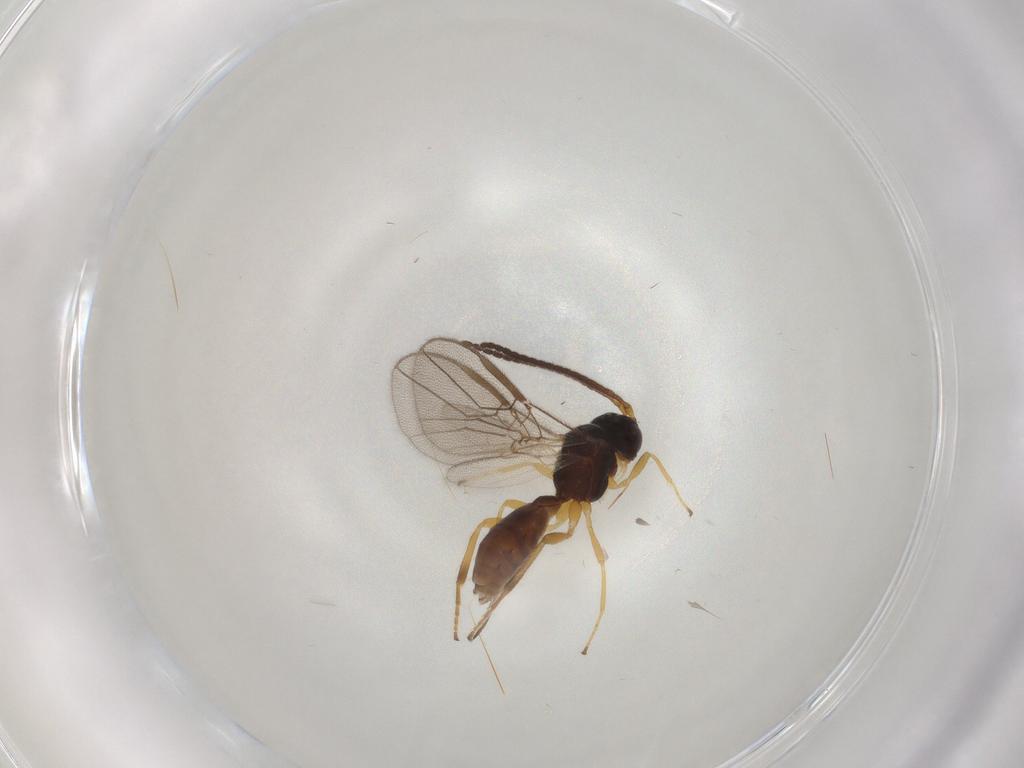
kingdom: Animalia
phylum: Arthropoda
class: Insecta
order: Hymenoptera
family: Braconidae
